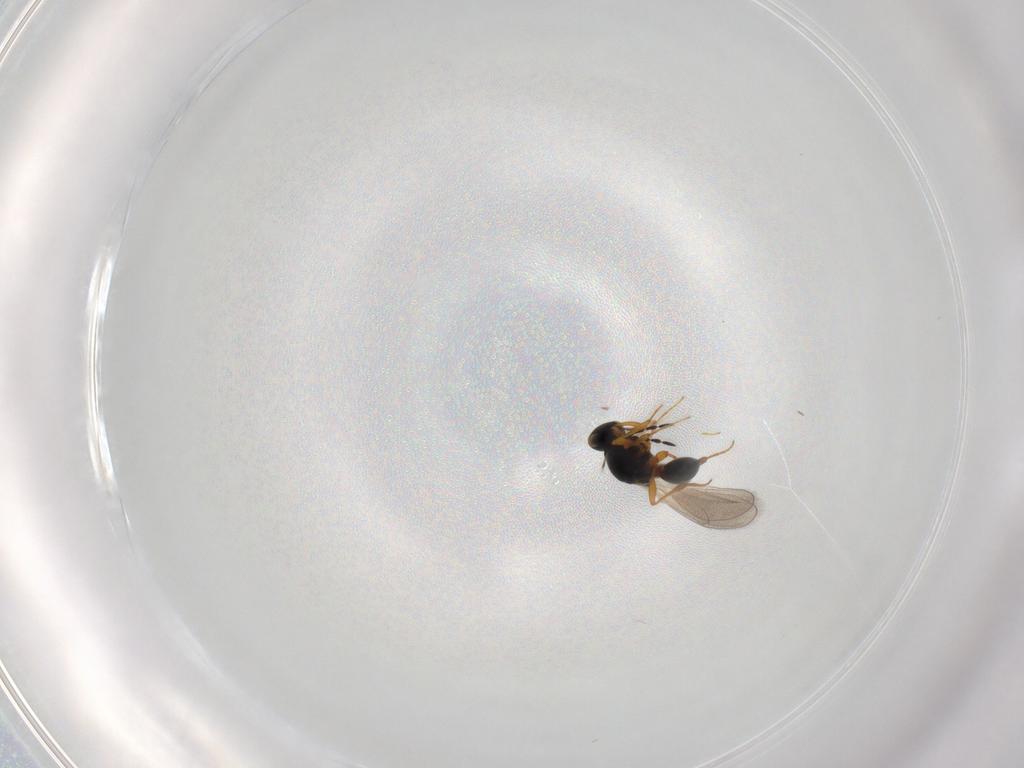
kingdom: Animalia
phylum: Arthropoda
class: Insecta
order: Hymenoptera
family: Platygastridae
